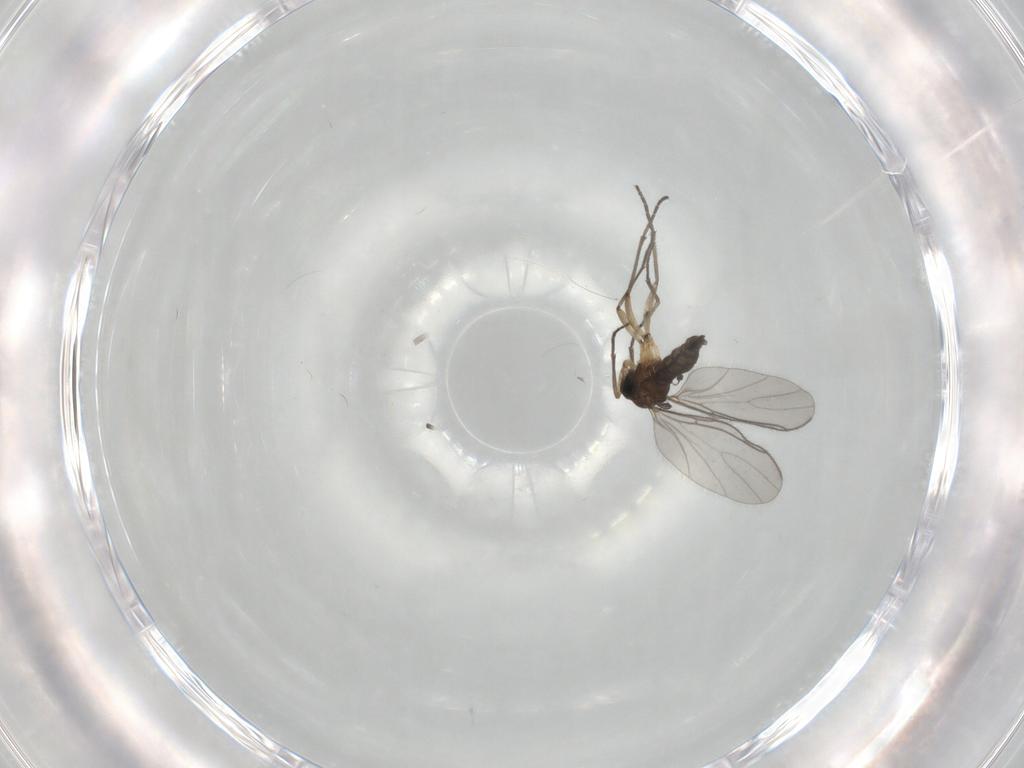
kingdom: Animalia
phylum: Arthropoda
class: Insecta
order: Diptera
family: Sciaridae
